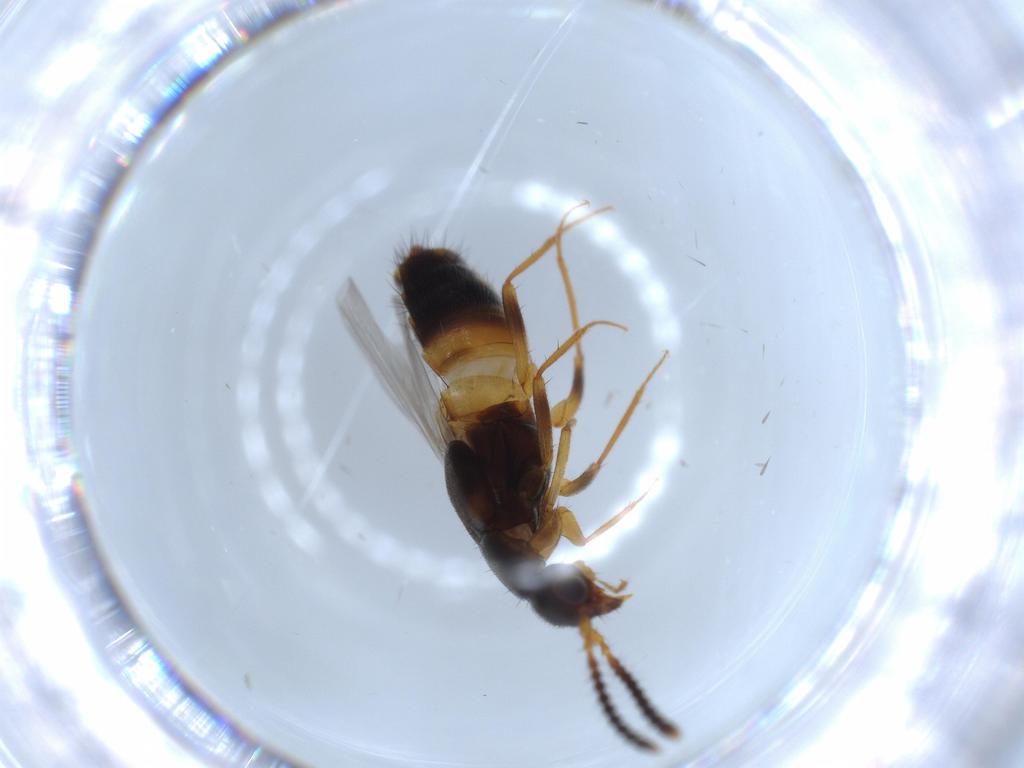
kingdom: Animalia
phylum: Arthropoda
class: Insecta
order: Coleoptera
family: Staphylinidae
